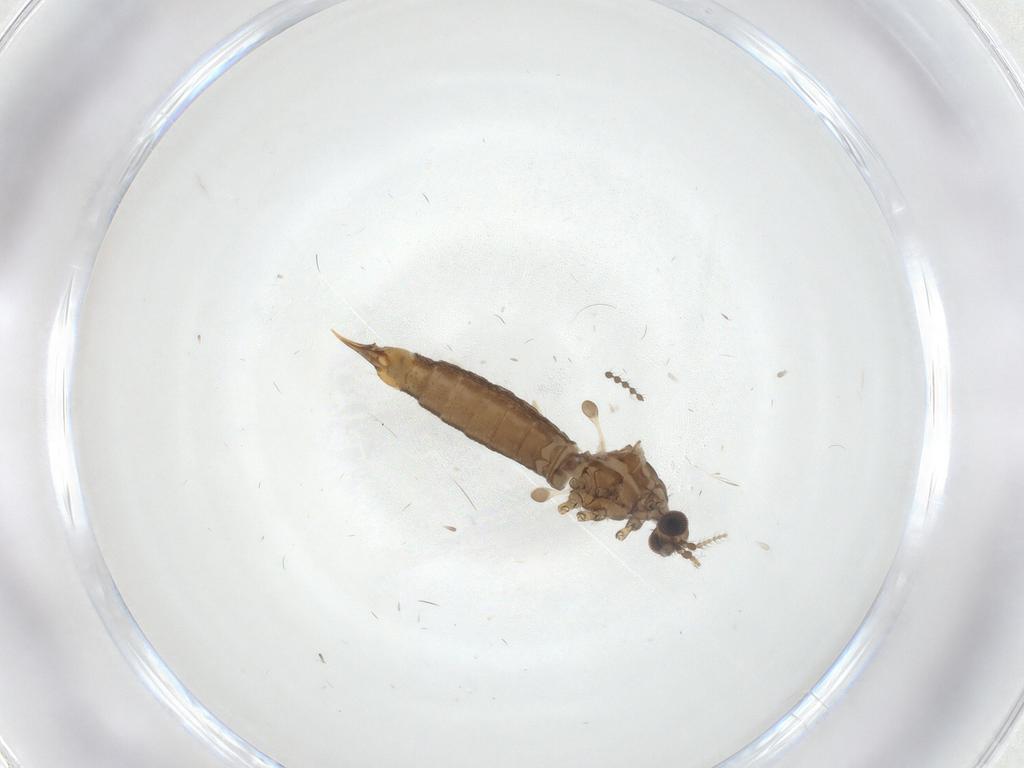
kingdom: Animalia
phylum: Arthropoda
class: Insecta
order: Diptera
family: Limoniidae
